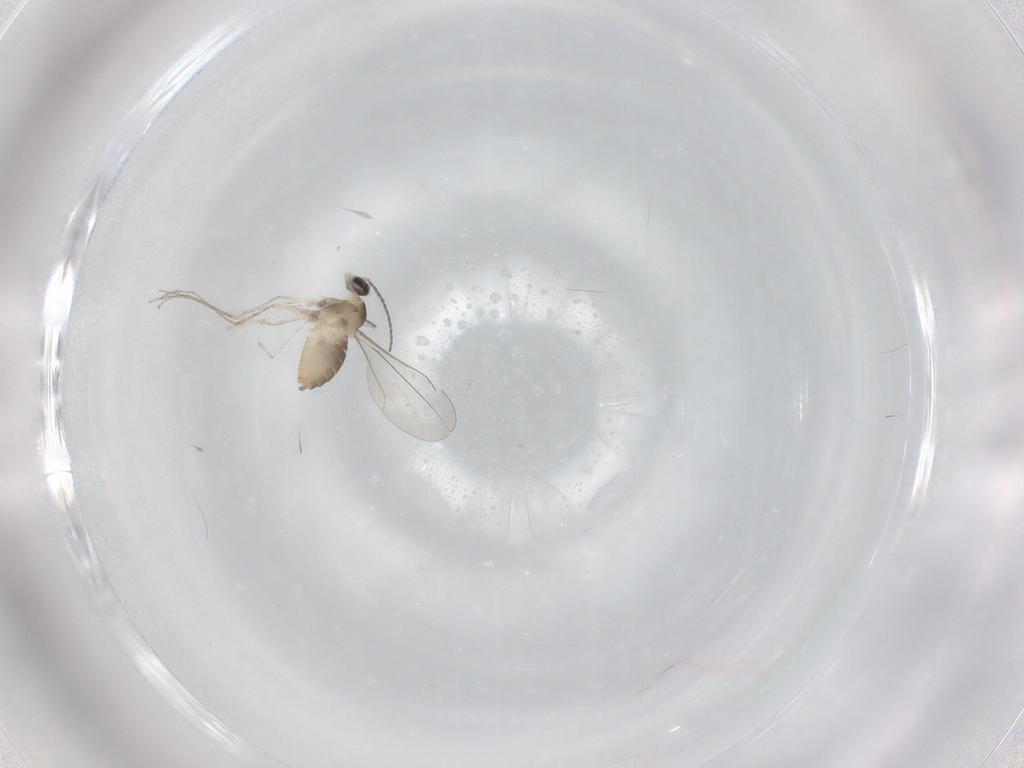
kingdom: Animalia
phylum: Arthropoda
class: Insecta
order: Diptera
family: Cecidomyiidae
